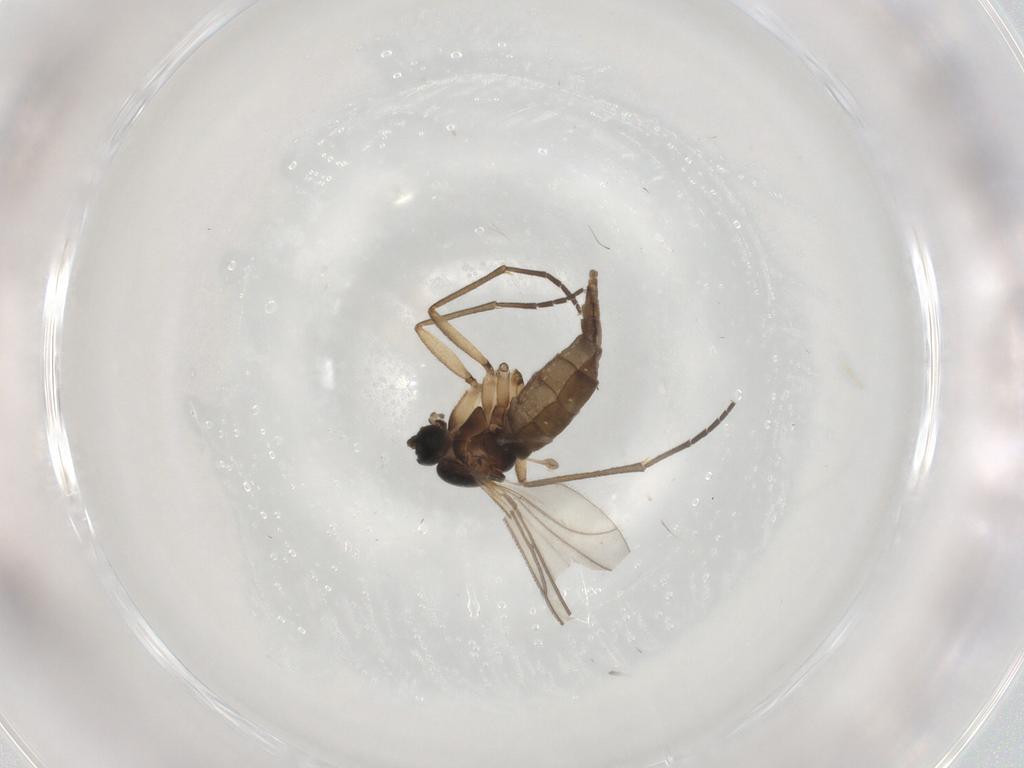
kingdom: Animalia
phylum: Arthropoda
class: Insecta
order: Diptera
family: Sciaridae
